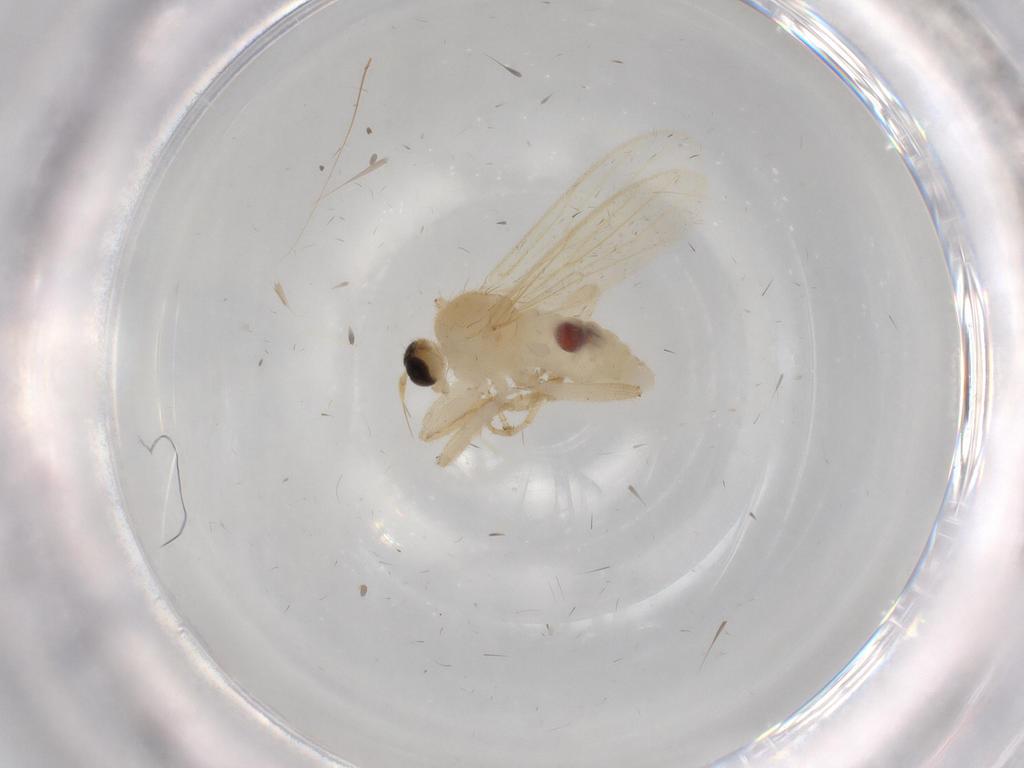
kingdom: Animalia
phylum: Arthropoda
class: Insecta
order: Diptera
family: Hybotidae
